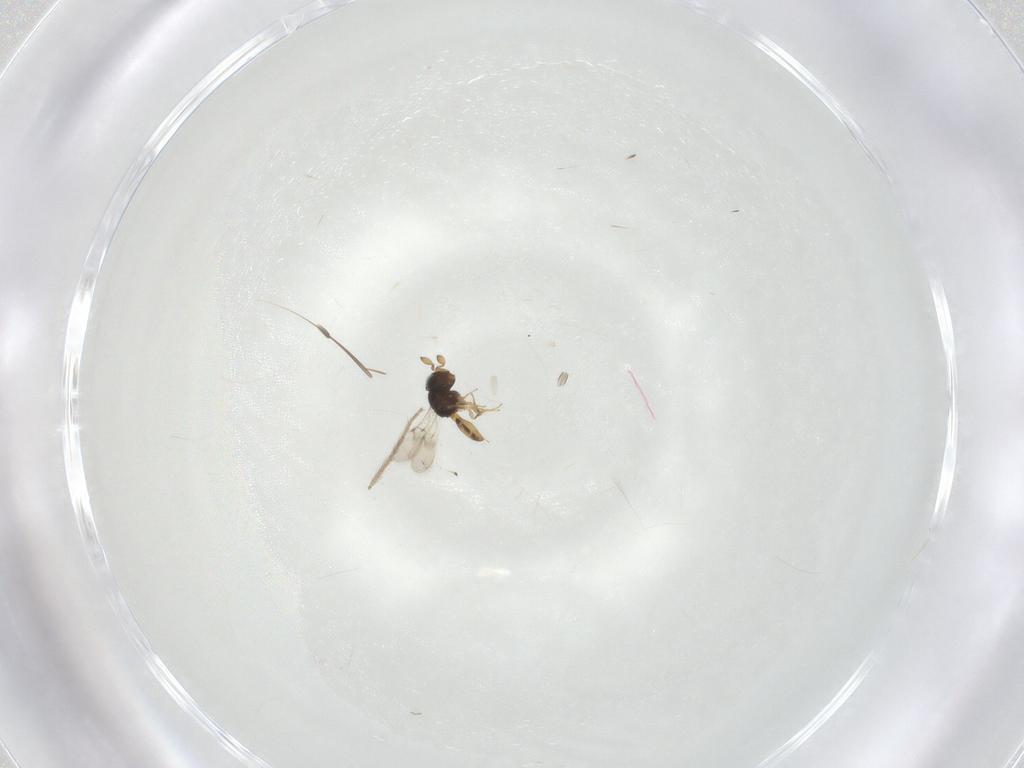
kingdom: Animalia
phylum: Arthropoda
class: Insecta
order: Hymenoptera
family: Scelionidae
